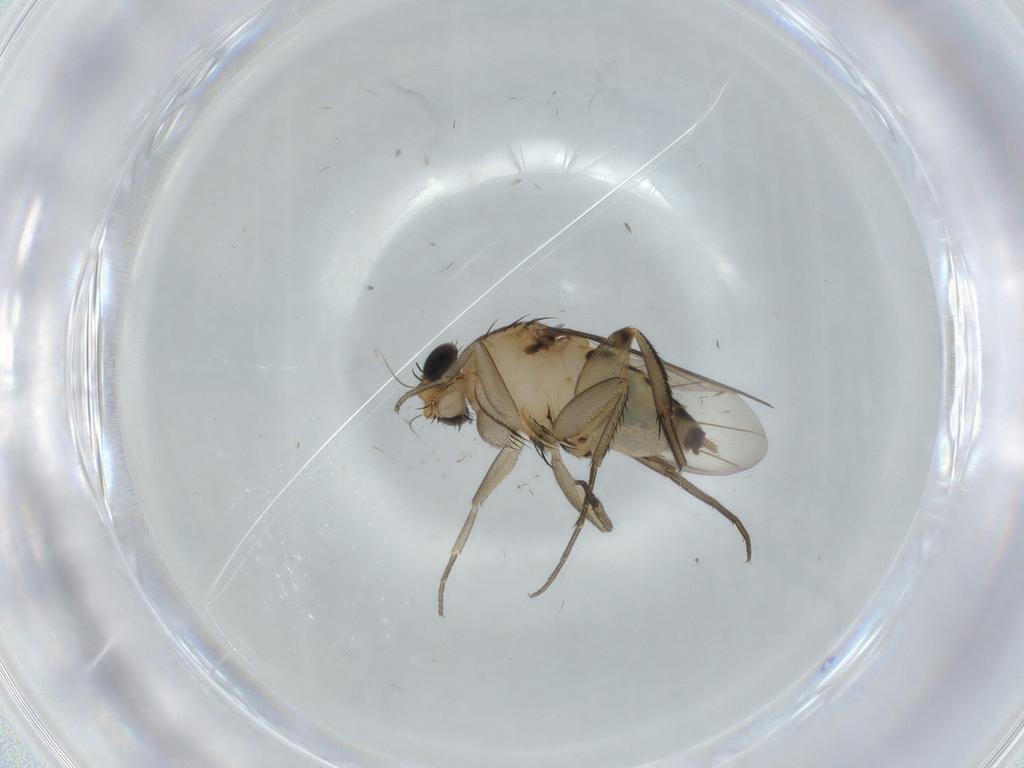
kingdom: Animalia
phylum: Arthropoda
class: Insecta
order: Diptera
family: Phoridae
